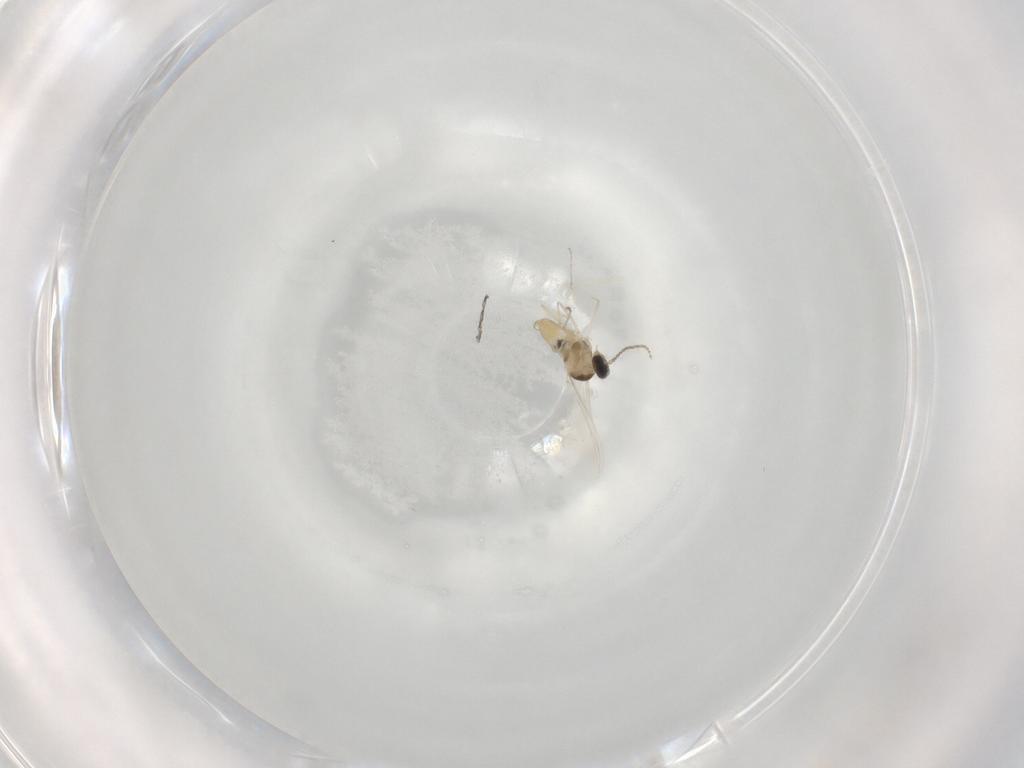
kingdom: Animalia
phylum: Arthropoda
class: Insecta
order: Diptera
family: Cecidomyiidae
